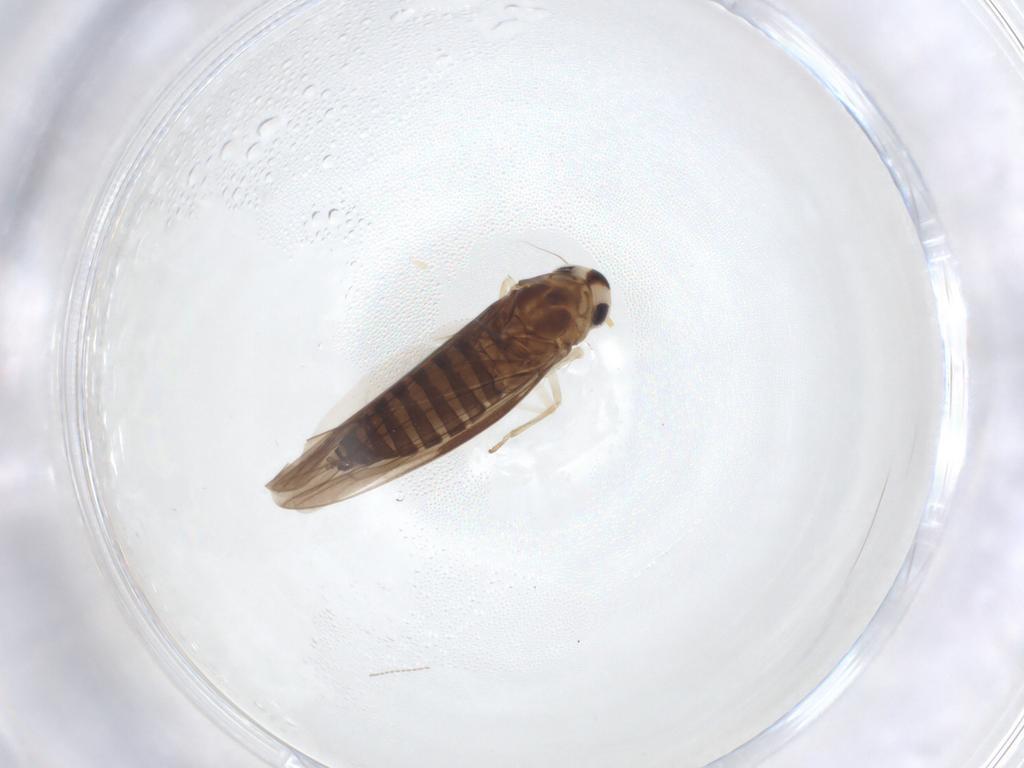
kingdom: Animalia
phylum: Arthropoda
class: Insecta
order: Hemiptera
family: Cicadellidae
